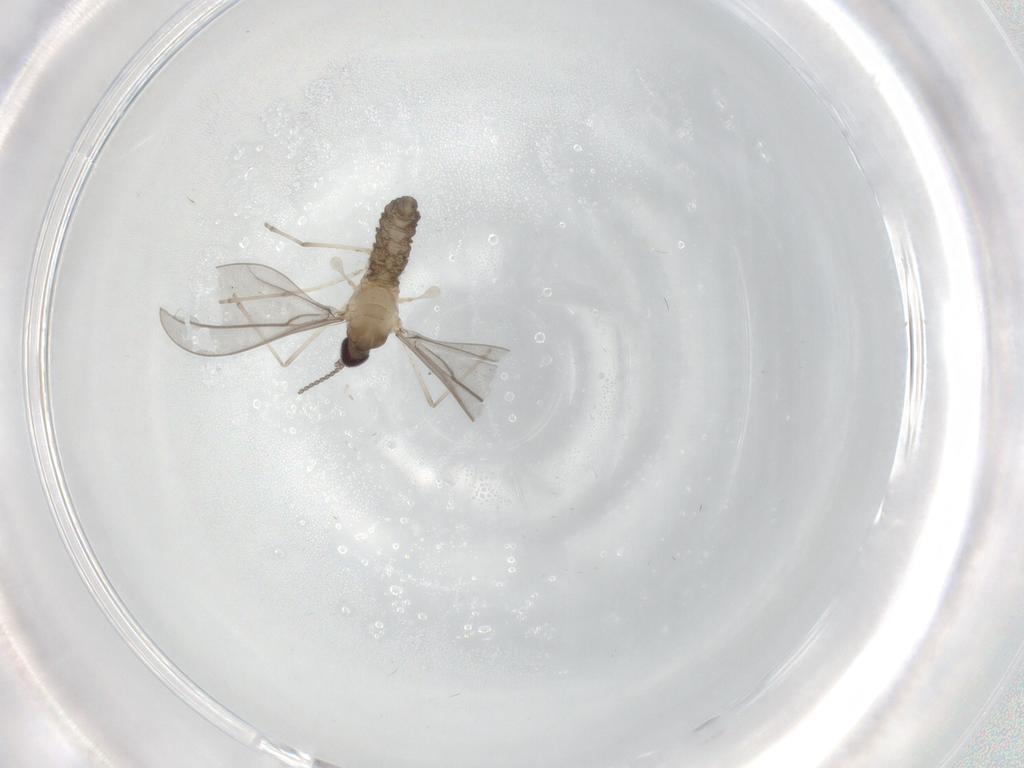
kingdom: Animalia
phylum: Arthropoda
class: Insecta
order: Diptera
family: Cecidomyiidae
